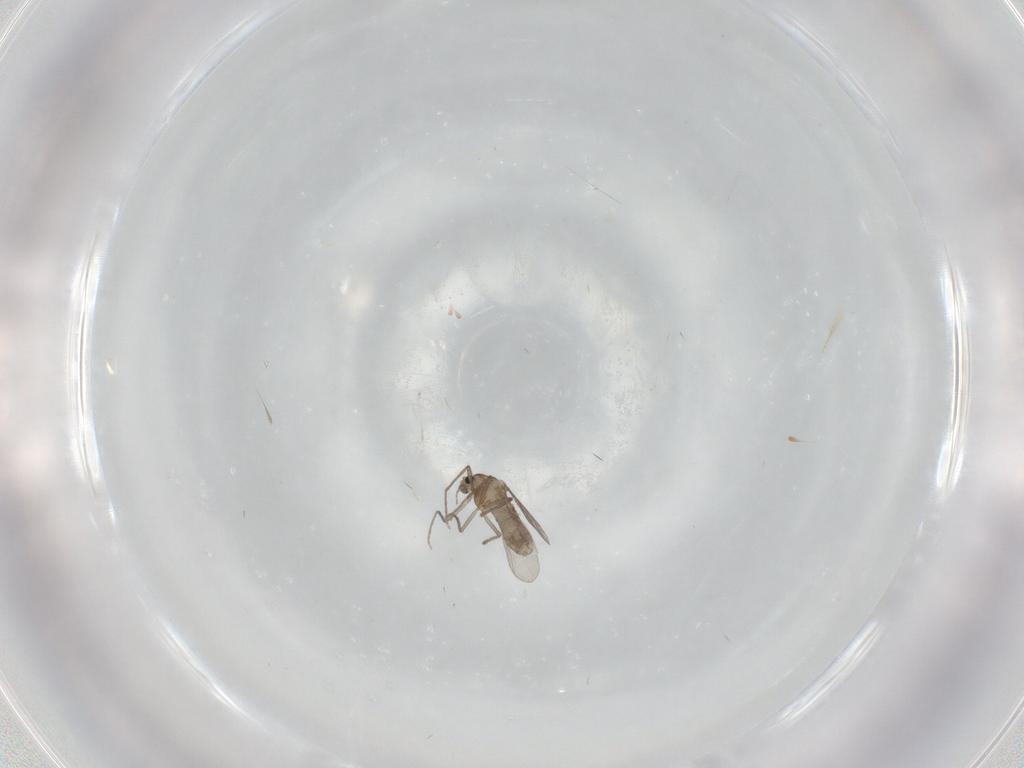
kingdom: Animalia
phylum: Arthropoda
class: Insecta
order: Diptera
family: Chironomidae
